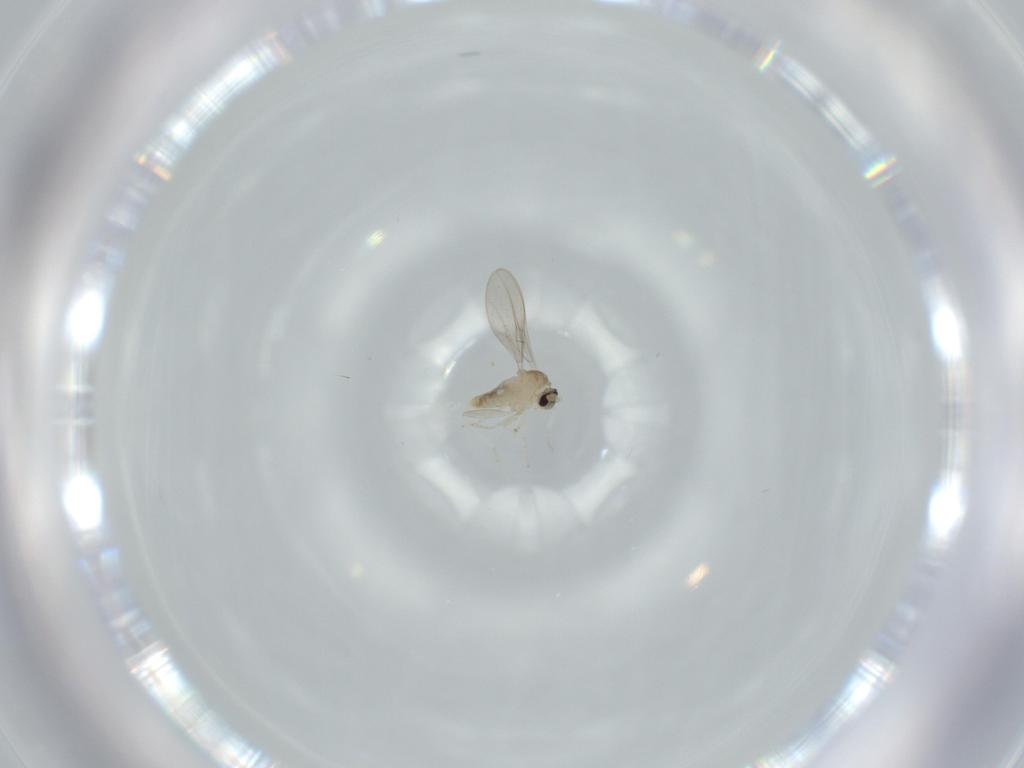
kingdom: Animalia
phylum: Arthropoda
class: Insecta
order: Diptera
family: Cecidomyiidae
